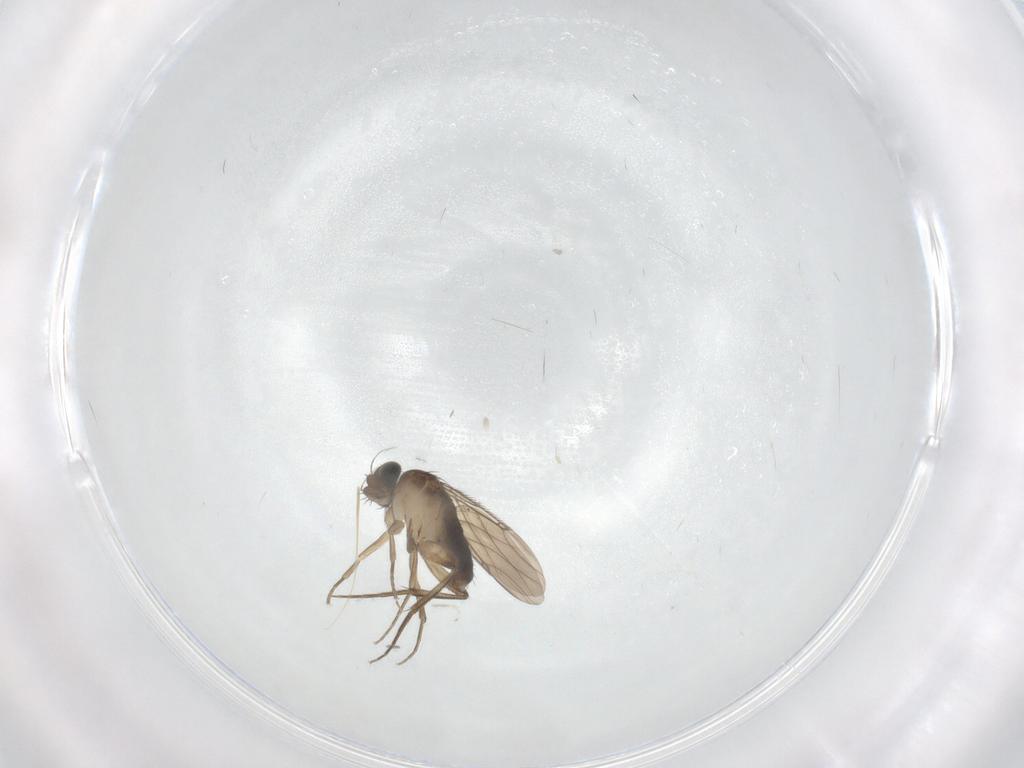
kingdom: Animalia
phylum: Arthropoda
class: Insecta
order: Diptera
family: Phoridae
